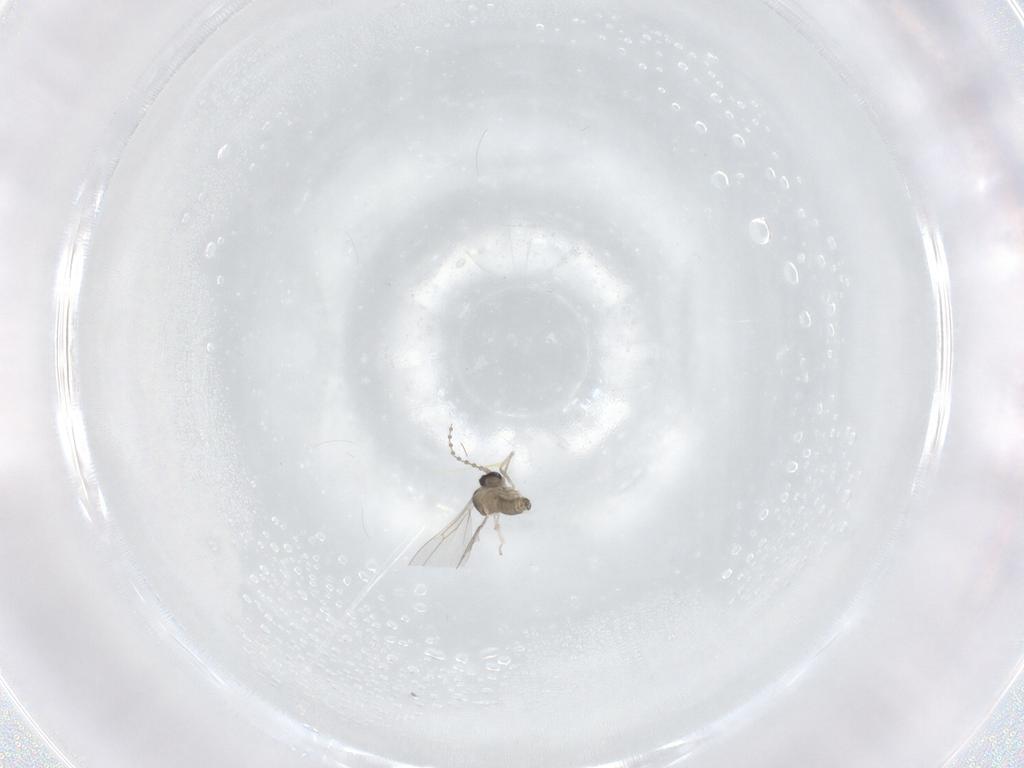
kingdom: Animalia
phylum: Arthropoda
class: Insecta
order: Diptera
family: Cecidomyiidae
